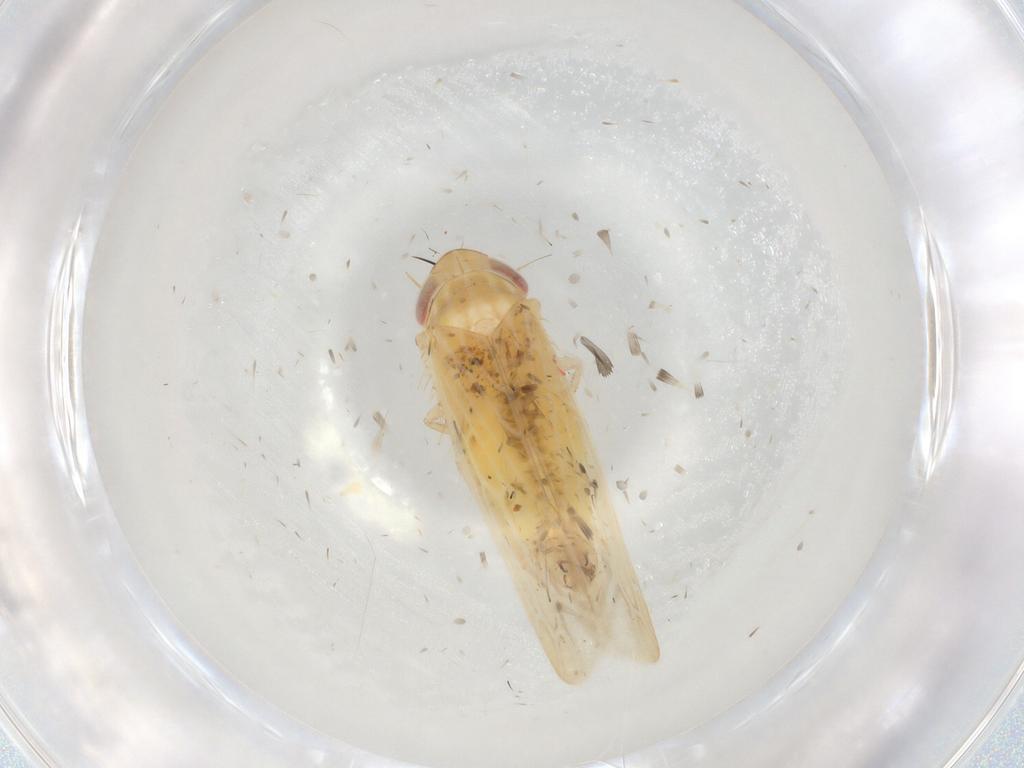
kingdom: Animalia
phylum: Arthropoda
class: Insecta
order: Hemiptera
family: Cicadellidae
